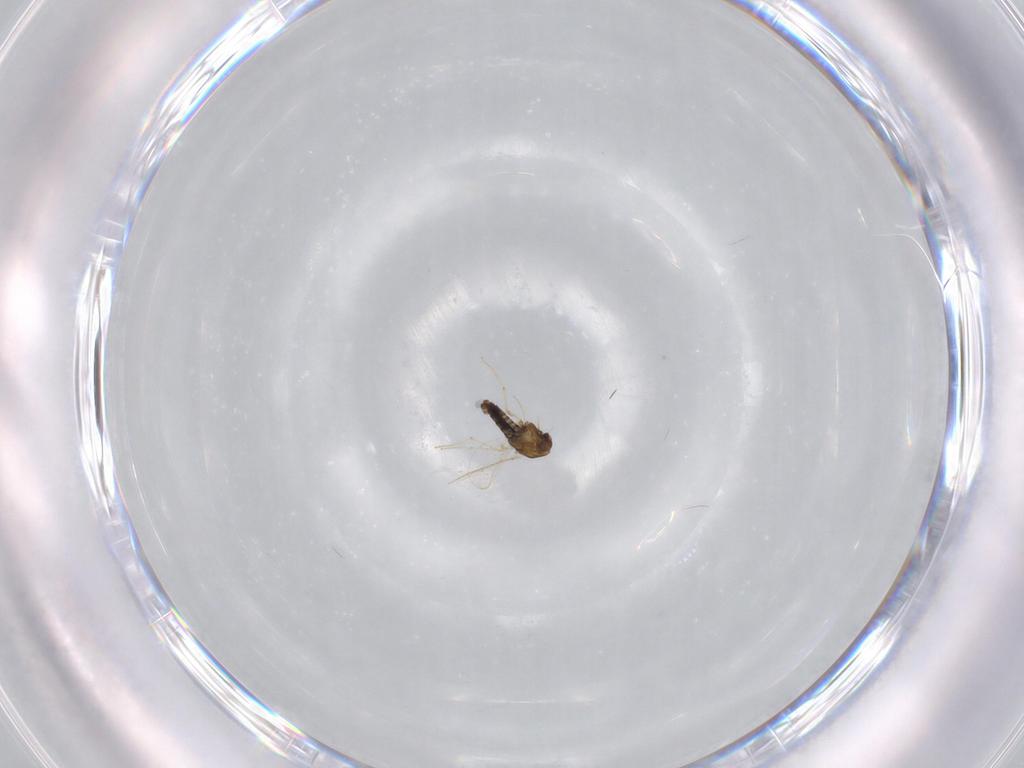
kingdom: Animalia
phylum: Arthropoda
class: Insecta
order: Diptera
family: Chironomidae
